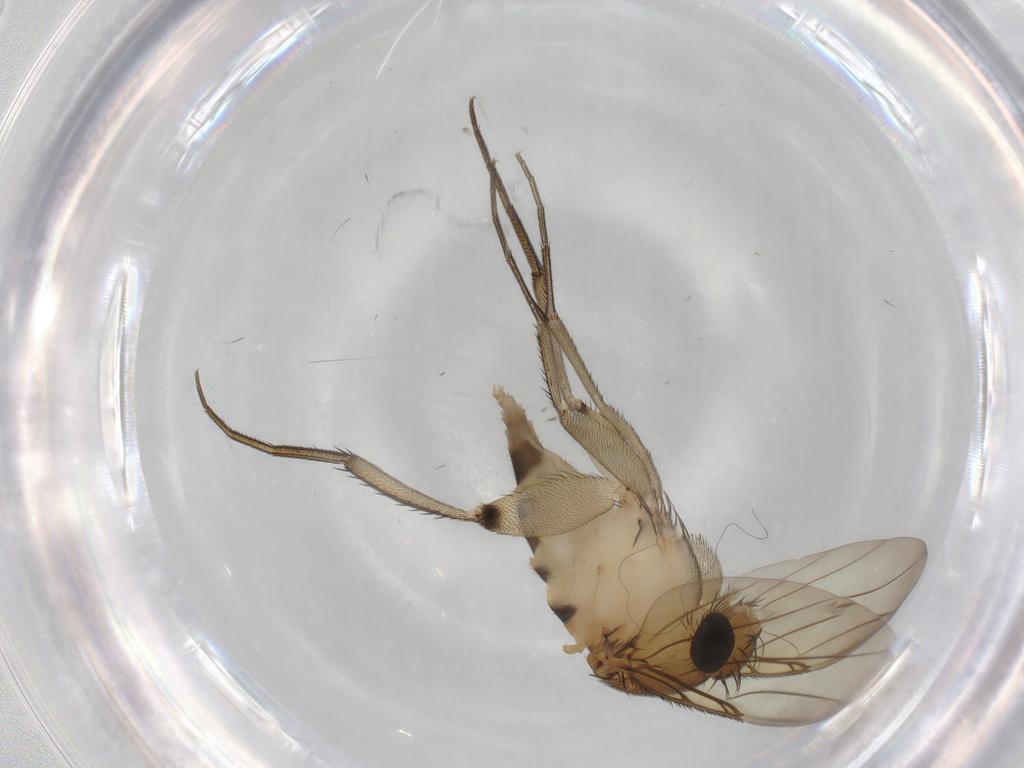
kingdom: Animalia
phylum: Arthropoda
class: Insecta
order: Diptera
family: Phoridae
